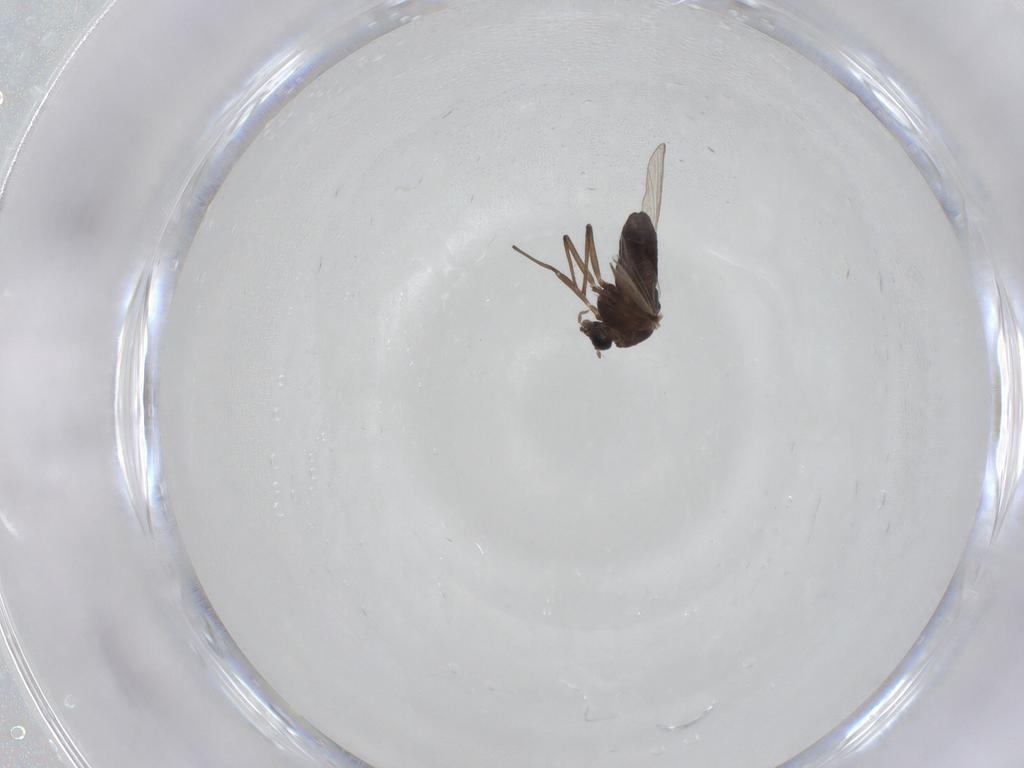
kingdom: Animalia
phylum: Arthropoda
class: Insecta
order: Diptera
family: Chironomidae
